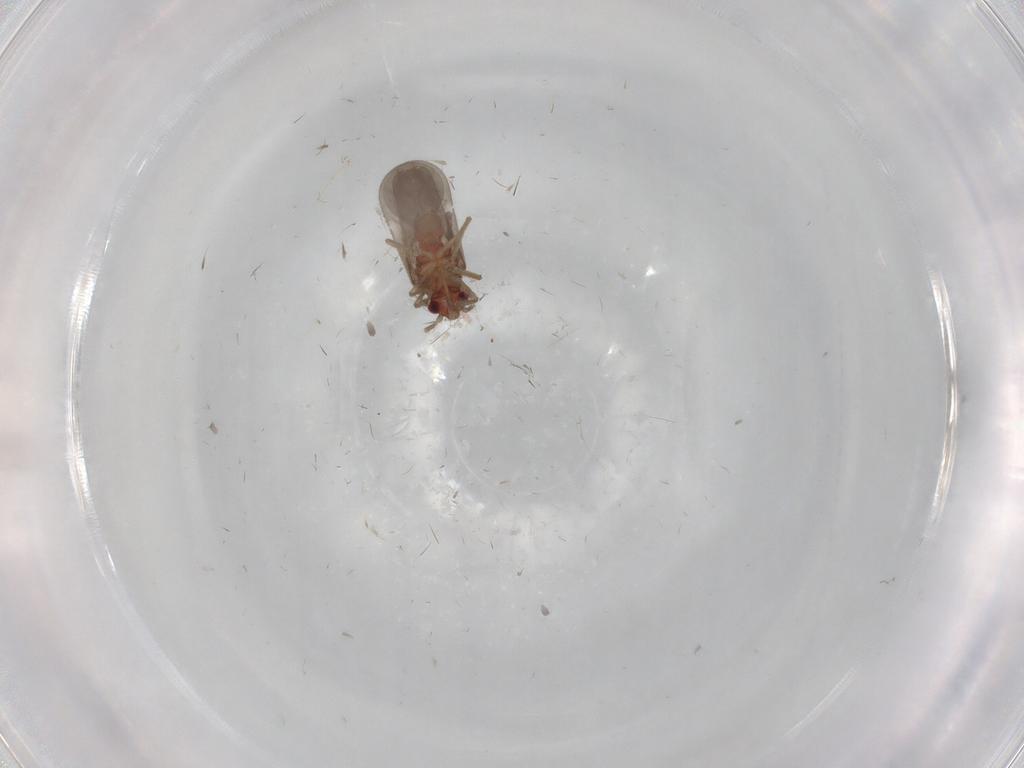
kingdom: Animalia
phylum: Arthropoda
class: Insecta
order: Hemiptera
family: Ceratocombidae
